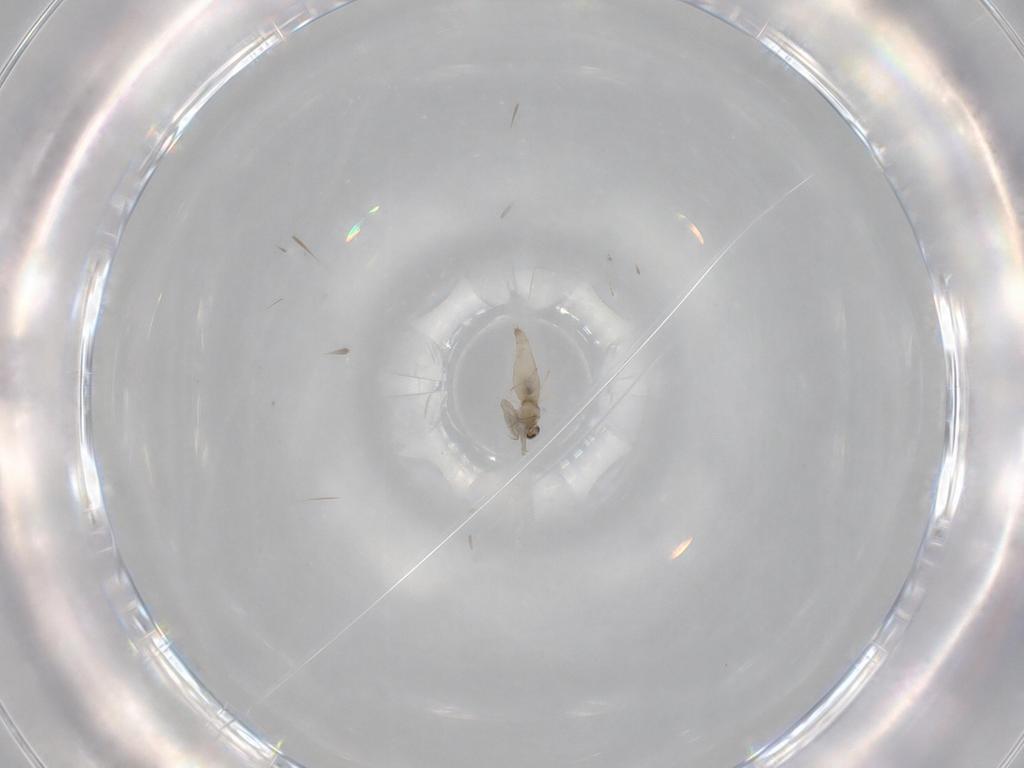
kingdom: Animalia
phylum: Arthropoda
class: Insecta
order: Diptera
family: Cecidomyiidae
